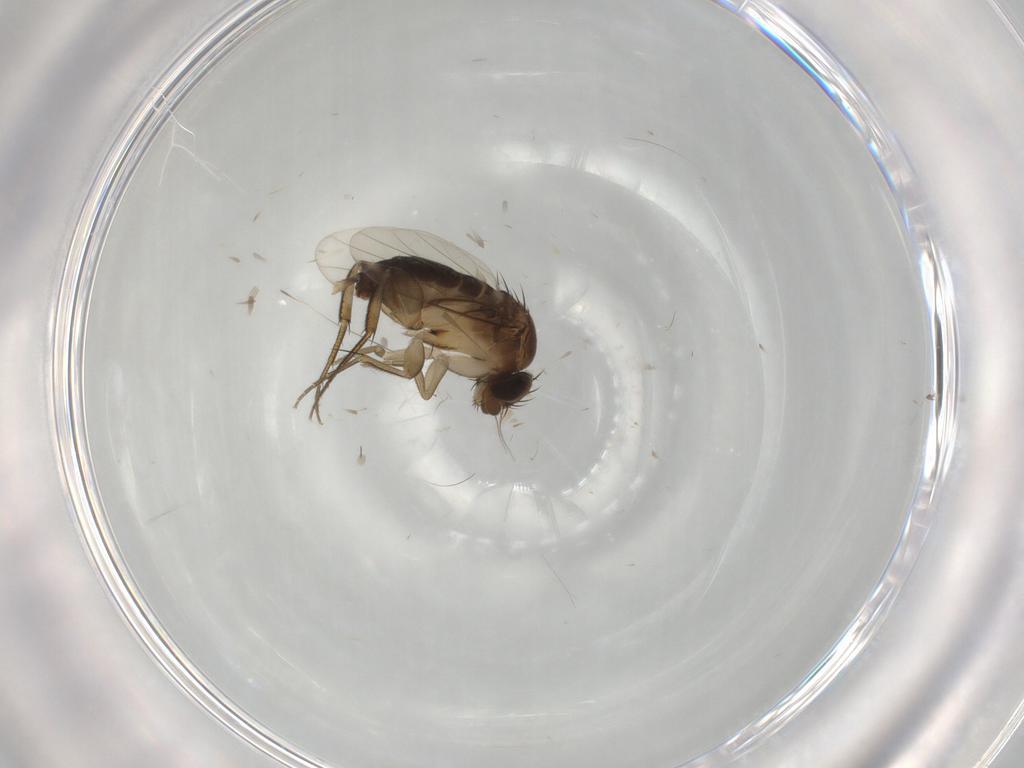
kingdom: Animalia
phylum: Arthropoda
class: Insecta
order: Diptera
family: Phoridae
